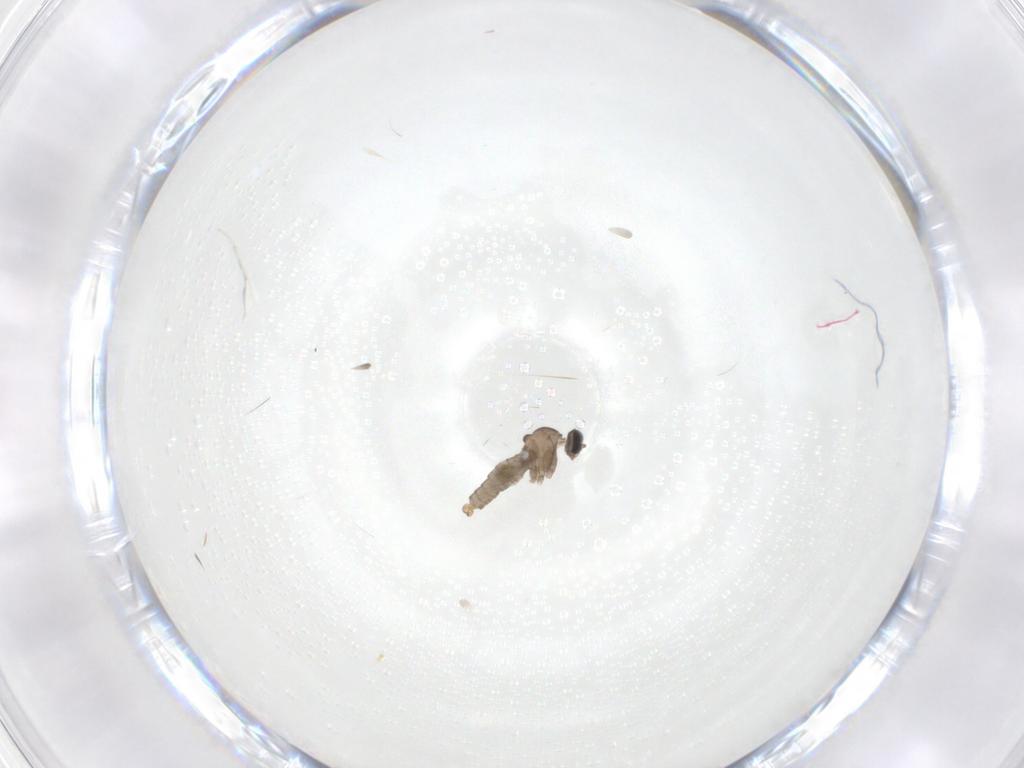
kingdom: Animalia
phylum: Arthropoda
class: Insecta
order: Diptera
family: Cecidomyiidae
